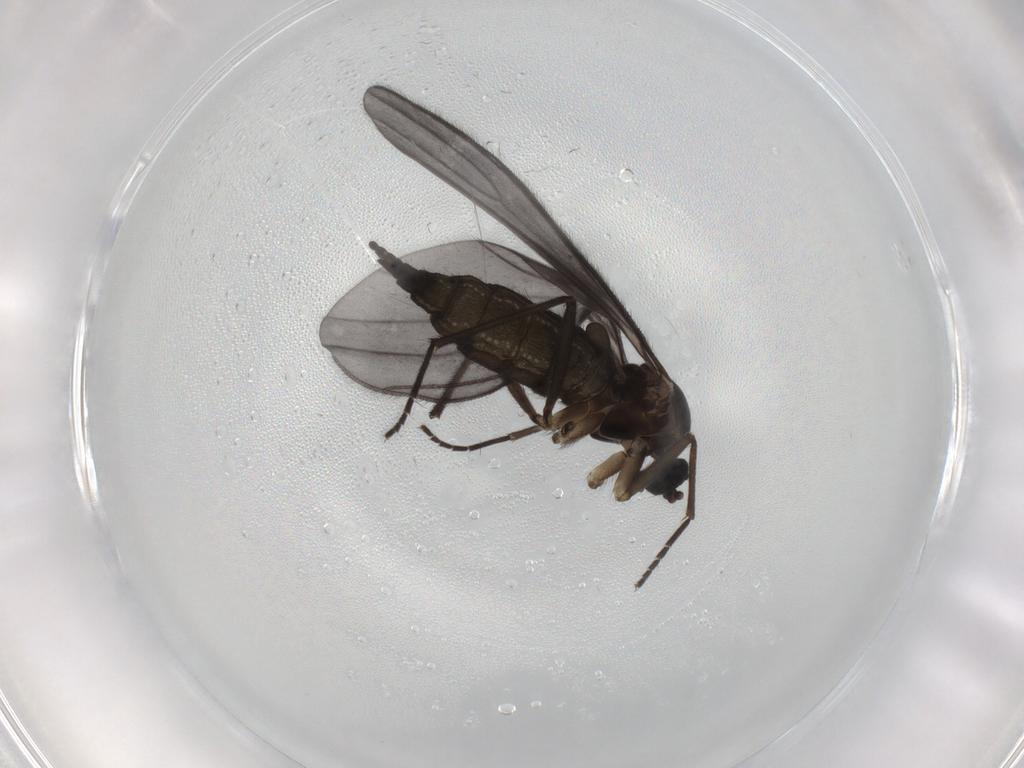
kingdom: Animalia
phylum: Arthropoda
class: Insecta
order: Diptera
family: Sciaridae
